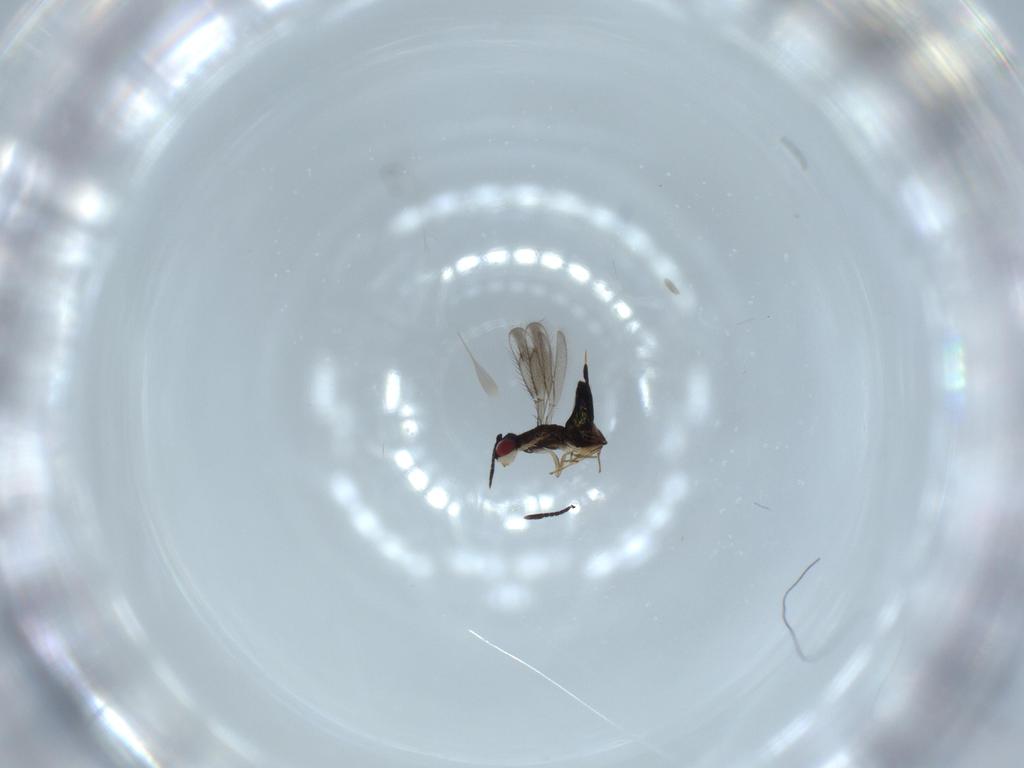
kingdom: Animalia
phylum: Arthropoda
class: Insecta
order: Hymenoptera
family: Pteromalidae
